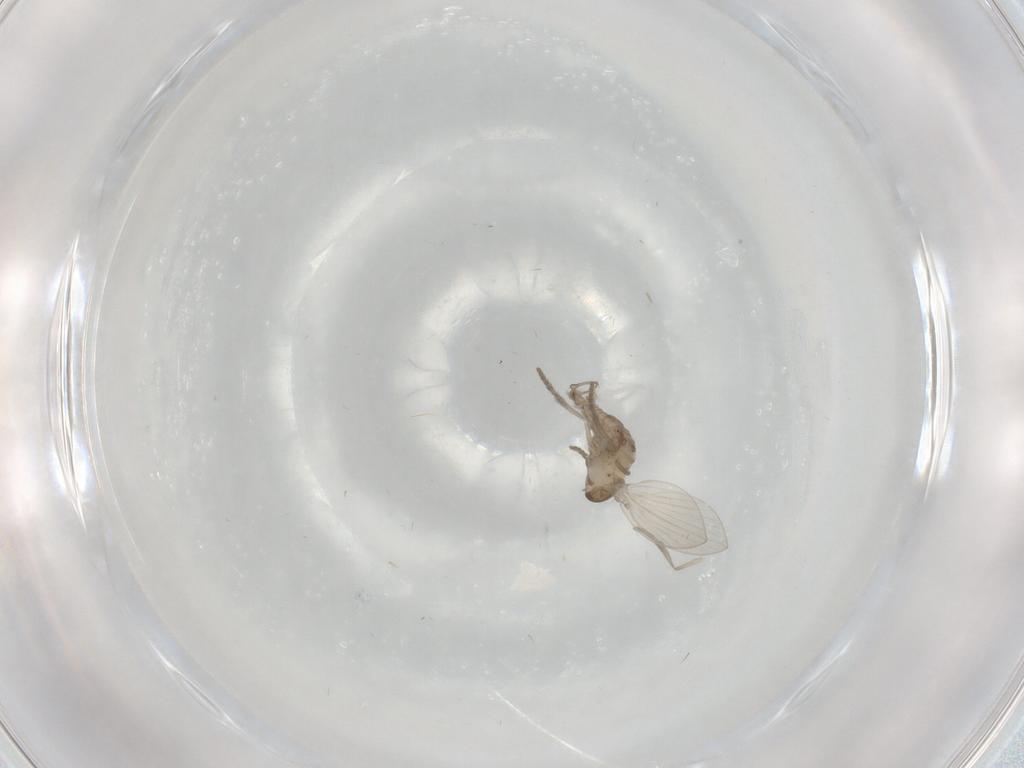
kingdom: Animalia
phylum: Arthropoda
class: Insecta
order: Diptera
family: Psychodidae
